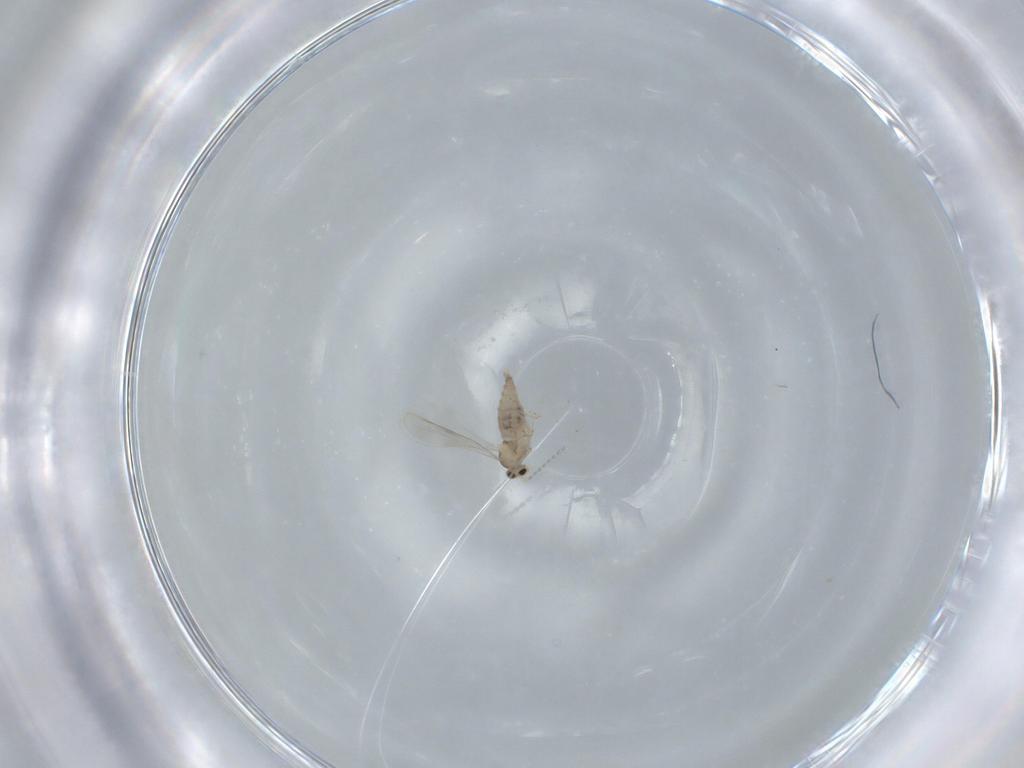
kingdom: Animalia
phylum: Arthropoda
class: Insecta
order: Diptera
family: Cecidomyiidae
